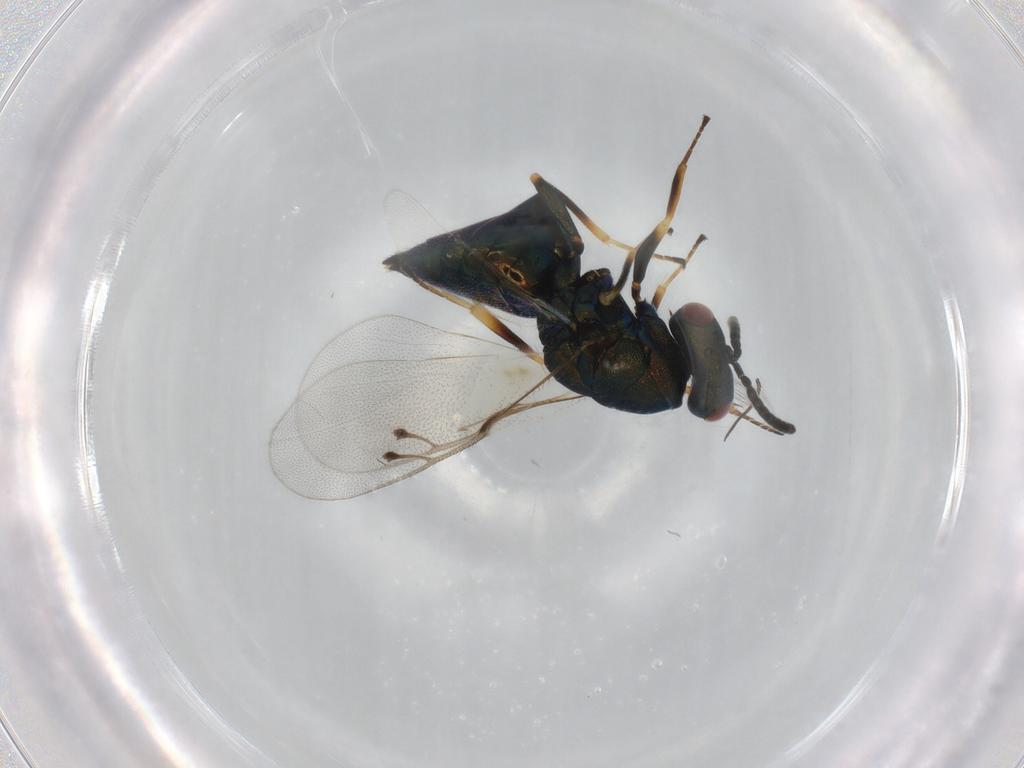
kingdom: Animalia
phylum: Arthropoda
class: Insecta
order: Hymenoptera
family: Pteromalidae
